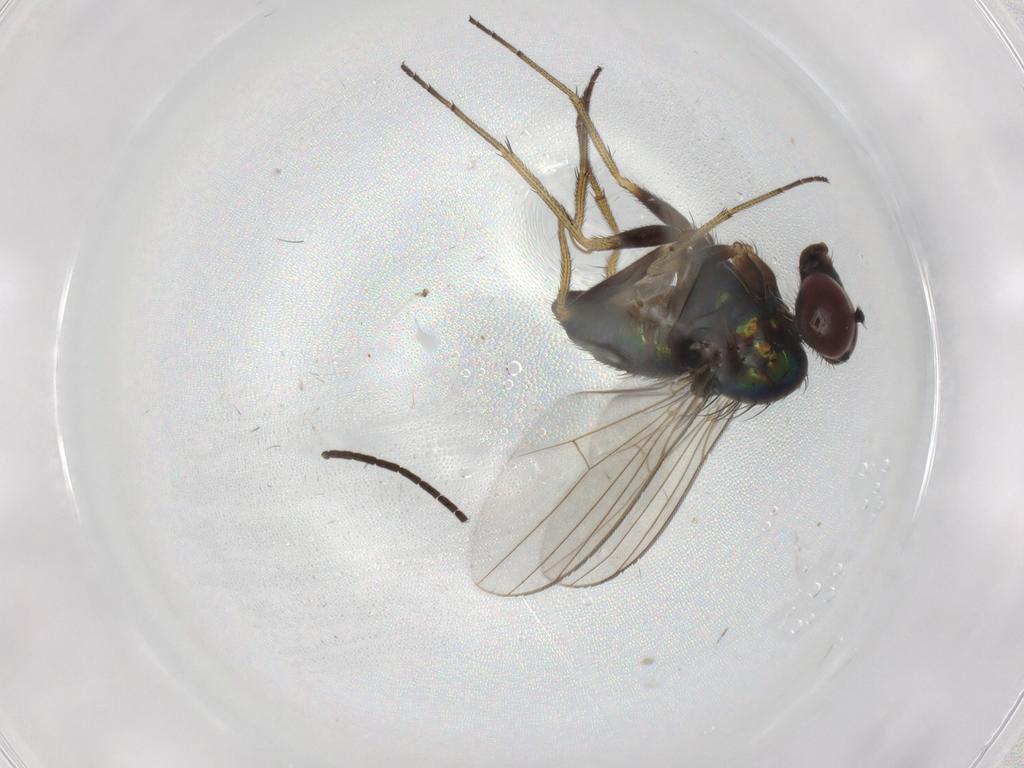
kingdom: Animalia
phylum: Arthropoda
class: Insecta
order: Diptera
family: Dolichopodidae
